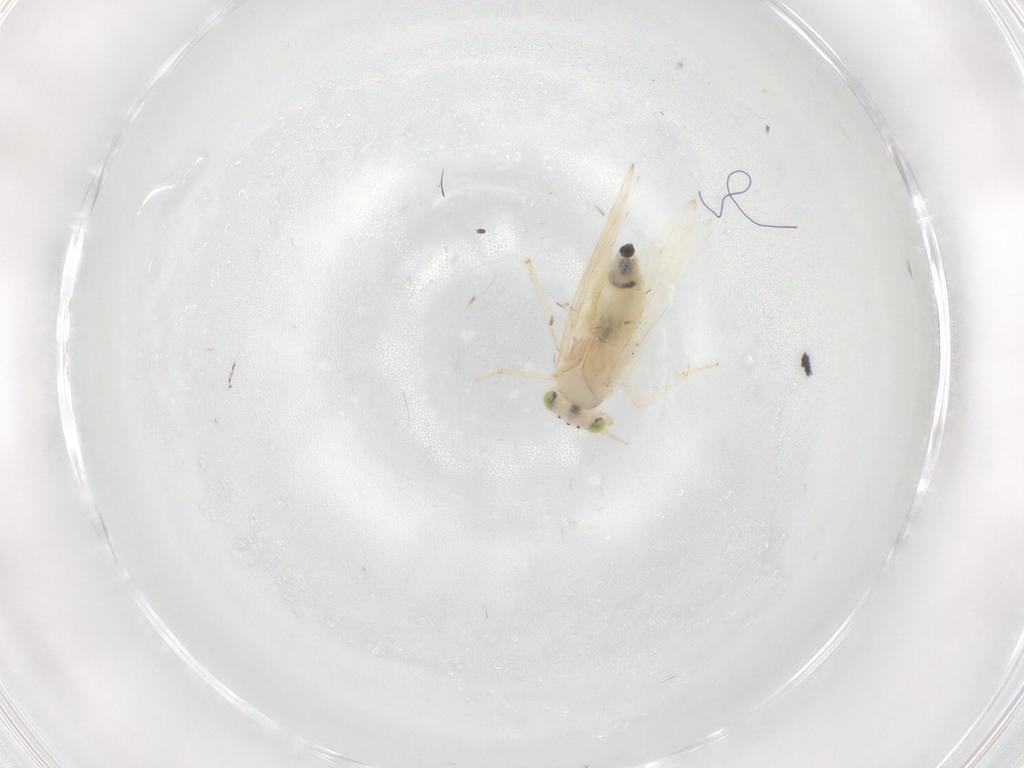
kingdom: Animalia
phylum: Arthropoda
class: Insecta
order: Psocodea
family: Lepidopsocidae
